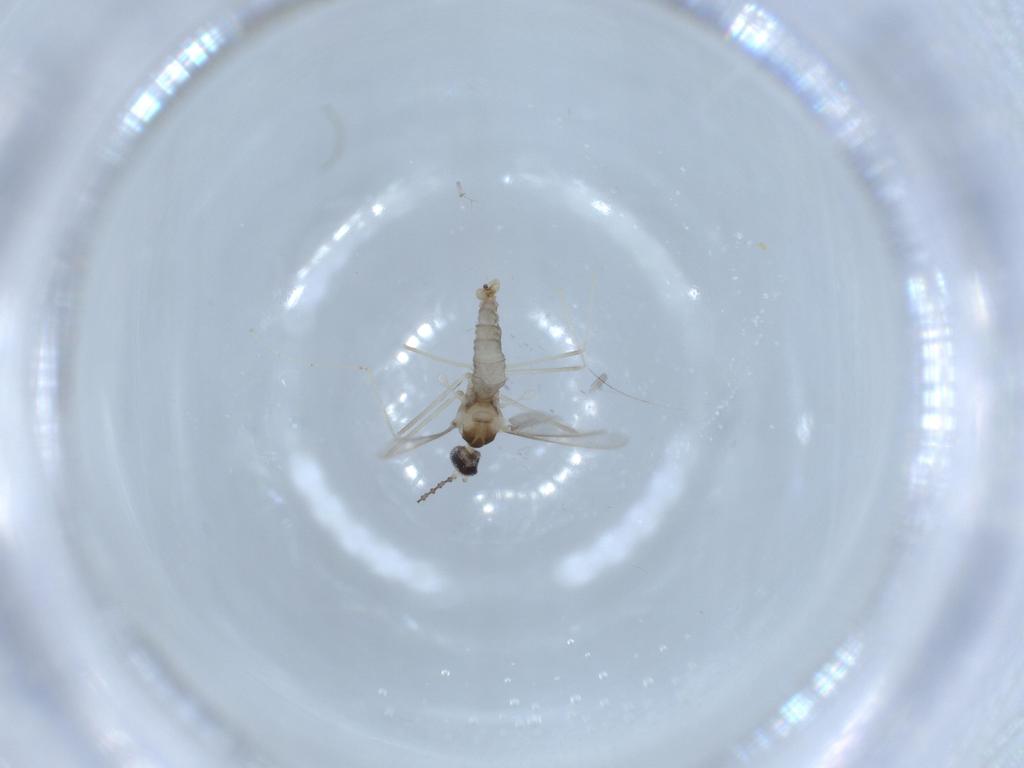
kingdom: Animalia
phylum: Arthropoda
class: Insecta
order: Diptera
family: Cecidomyiidae
